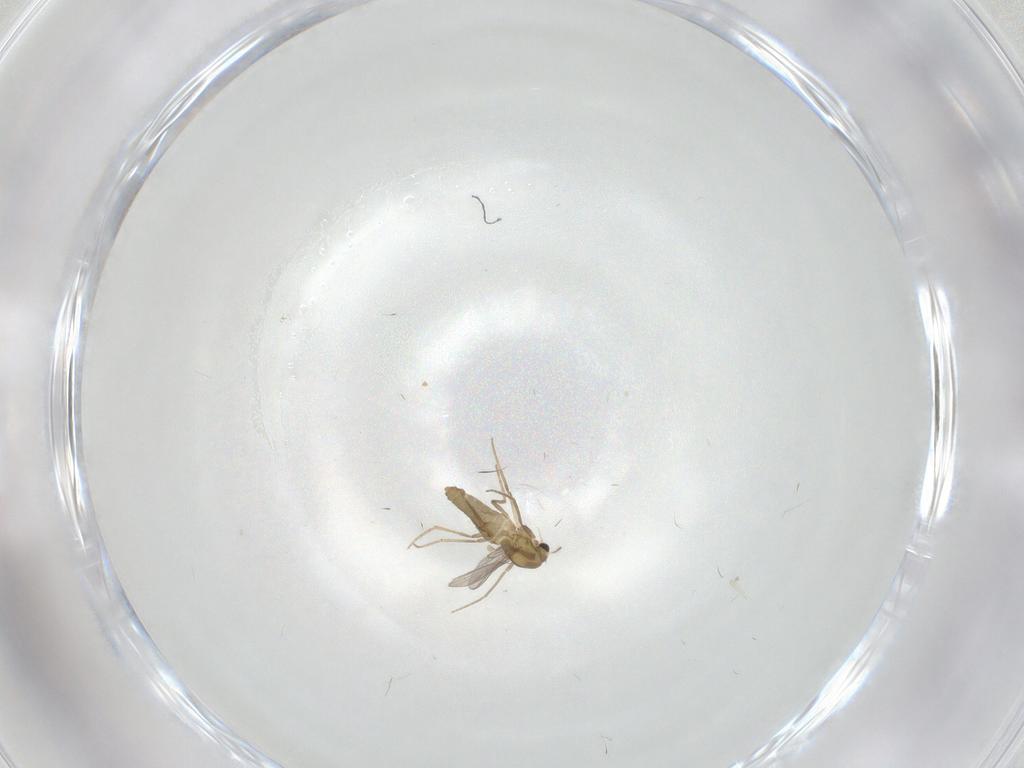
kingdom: Animalia
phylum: Arthropoda
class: Insecta
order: Diptera
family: Chironomidae
